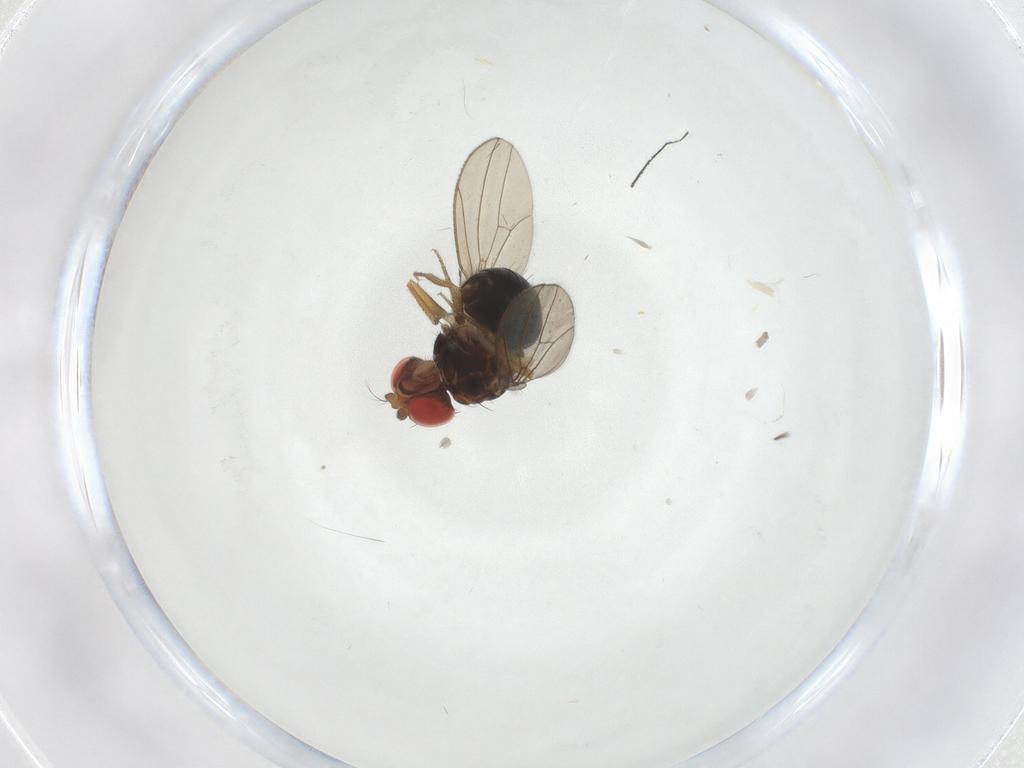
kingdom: Animalia
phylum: Arthropoda
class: Insecta
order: Diptera
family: Drosophilidae
